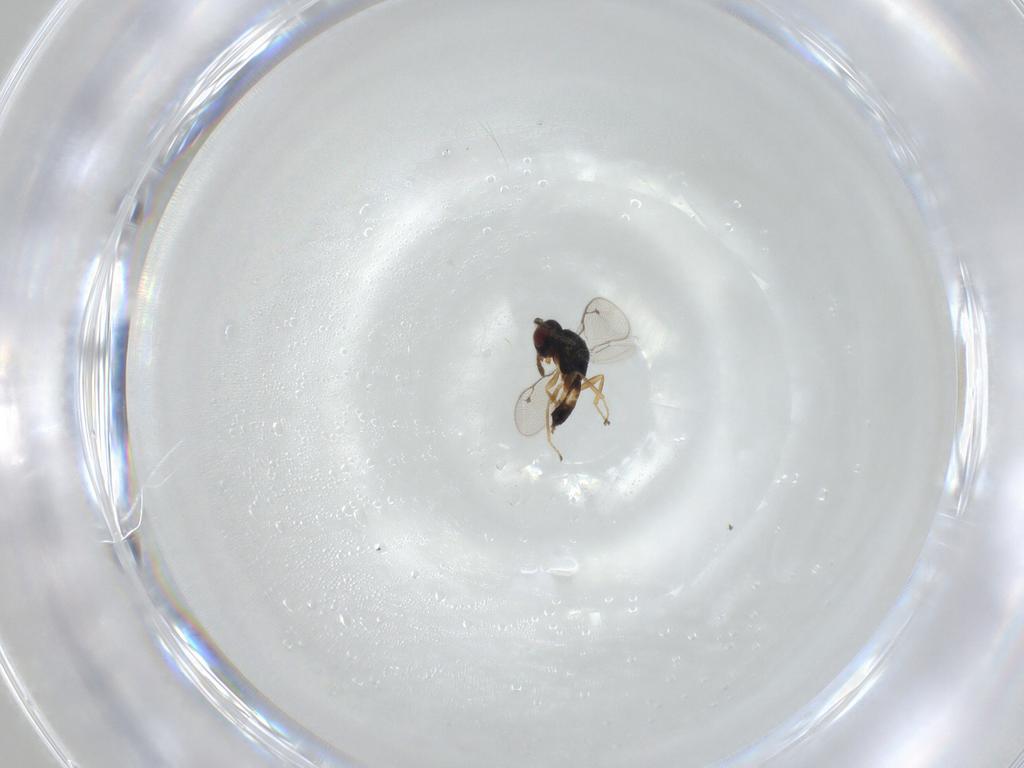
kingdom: Animalia
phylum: Arthropoda
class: Insecta
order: Hymenoptera
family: Pteromalidae
